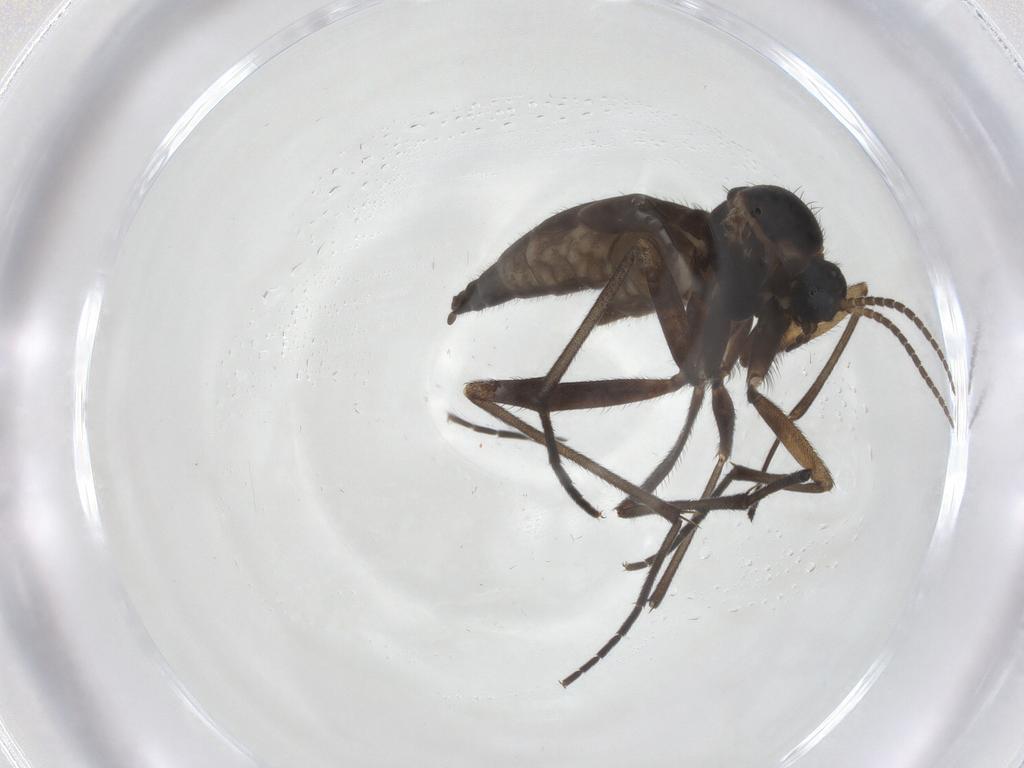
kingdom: Animalia
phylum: Arthropoda
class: Insecta
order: Diptera
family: Sciaridae
